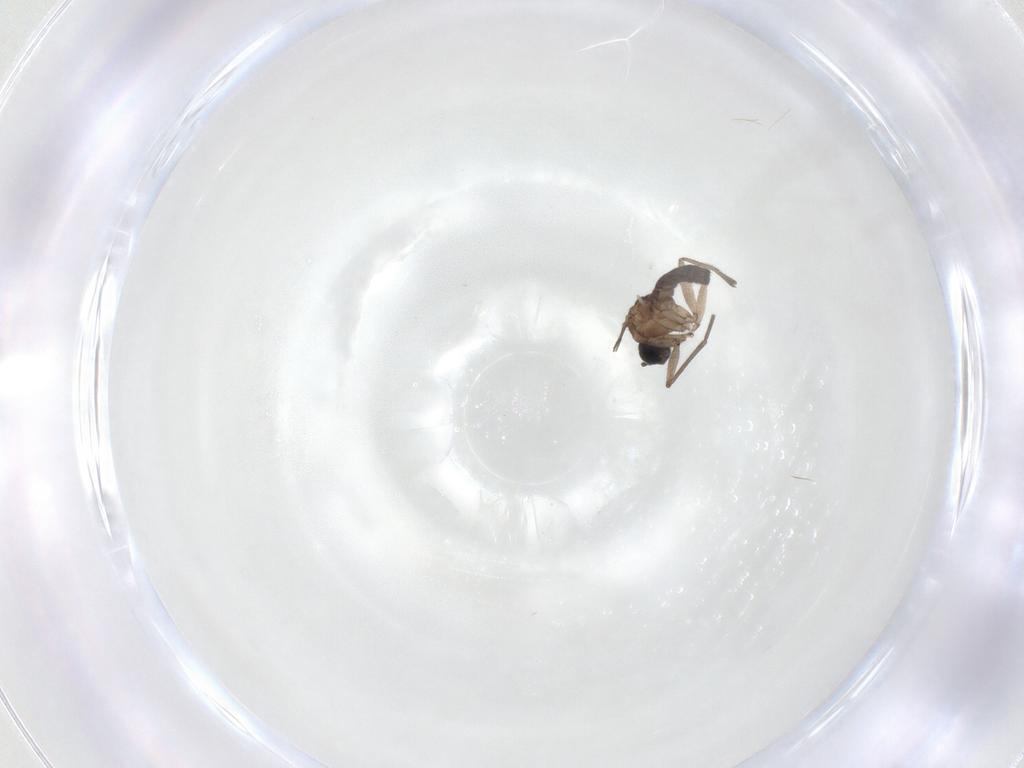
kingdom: Animalia
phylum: Arthropoda
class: Insecta
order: Diptera
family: Sciaridae
